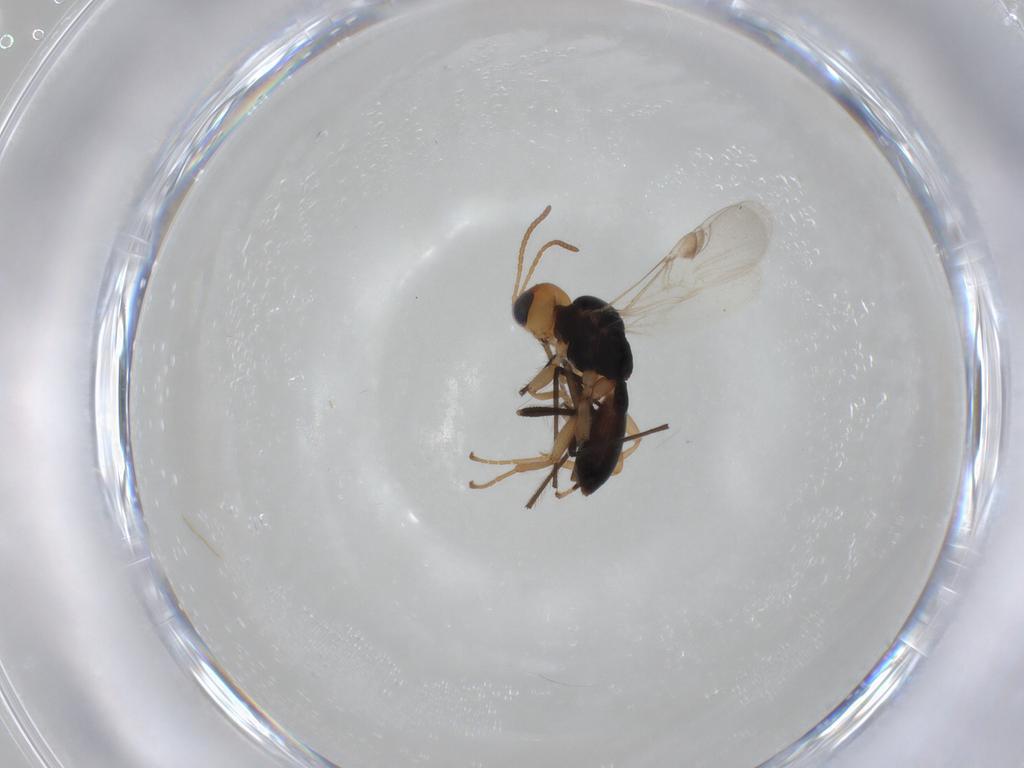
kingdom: Animalia
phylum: Arthropoda
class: Insecta
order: Hymenoptera
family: Braconidae
